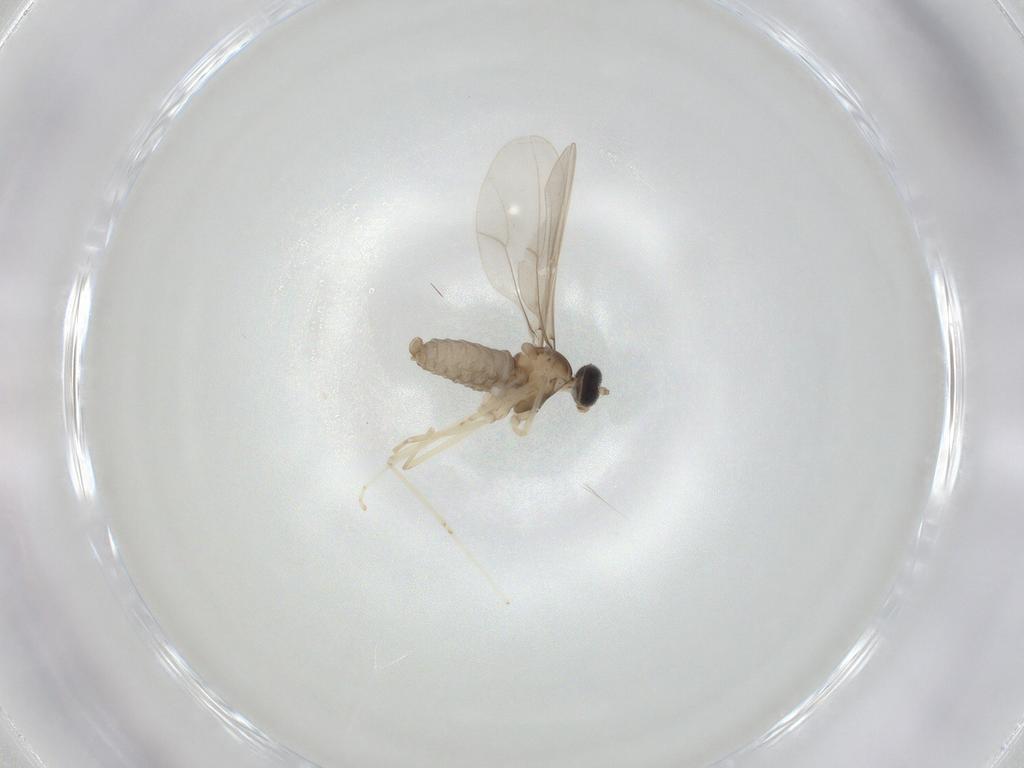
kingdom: Animalia
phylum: Arthropoda
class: Insecta
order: Diptera
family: Cecidomyiidae
